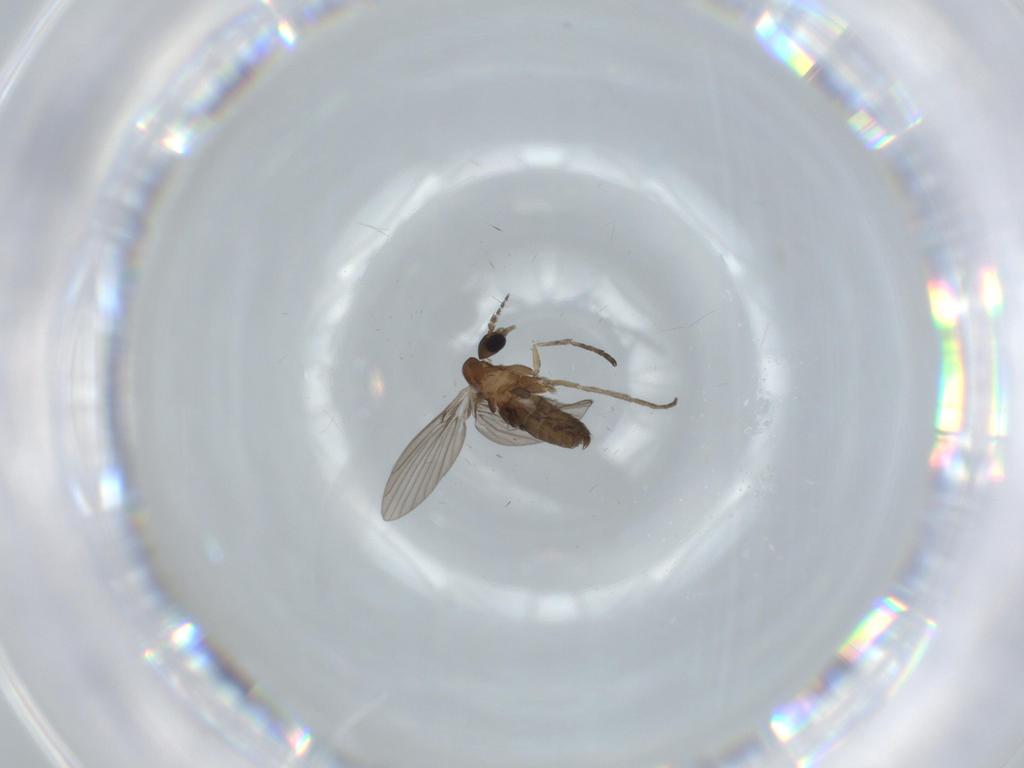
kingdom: Animalia
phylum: Arthropoda
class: Insecta
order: Diptera
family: Psychodidae
